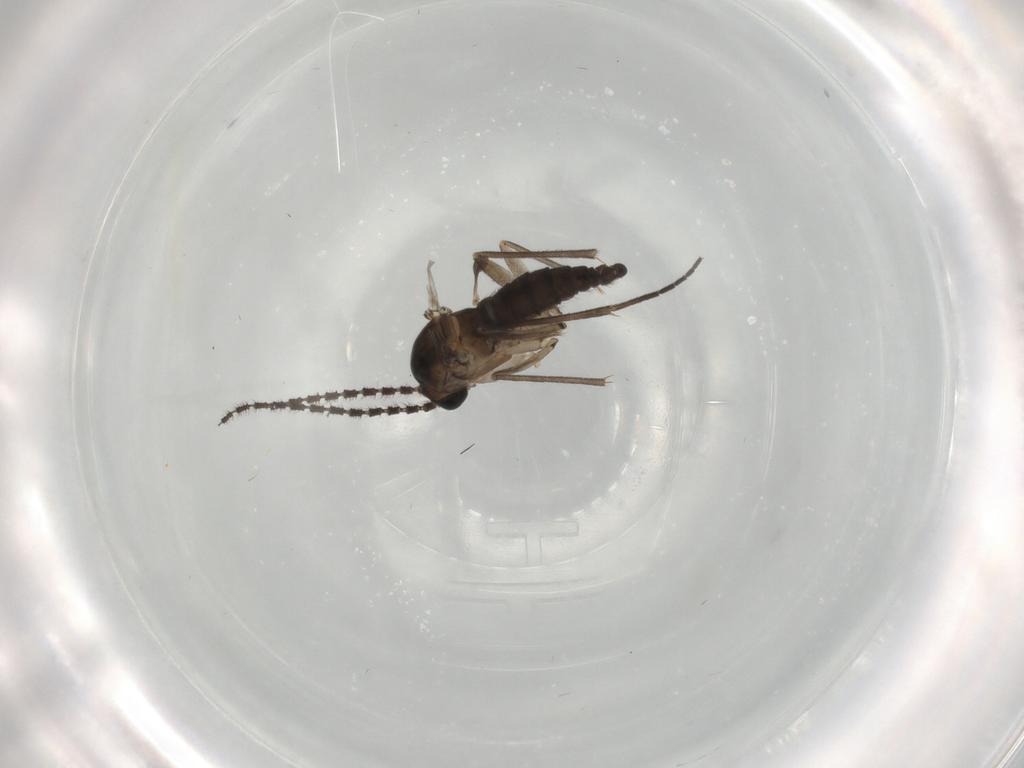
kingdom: Animalia
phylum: Arthropoda
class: Insecta
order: Diptera
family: Sciaridae
